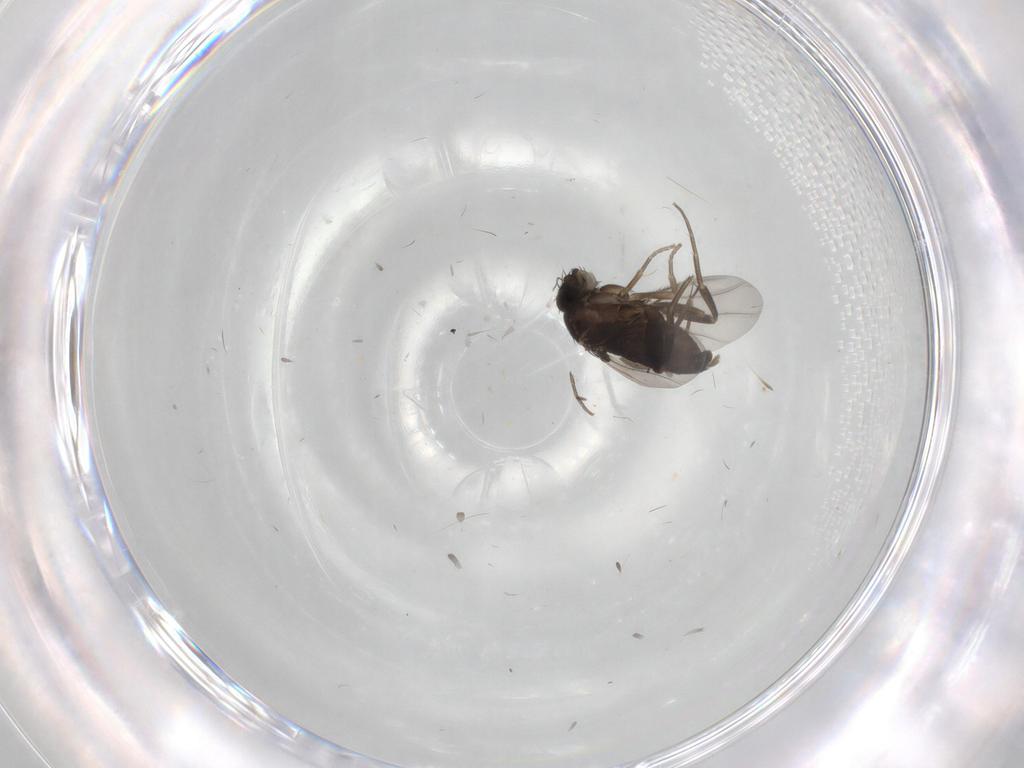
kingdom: Animalia
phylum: Arthropoda
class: Insecta
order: Diptera
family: Phoridae
